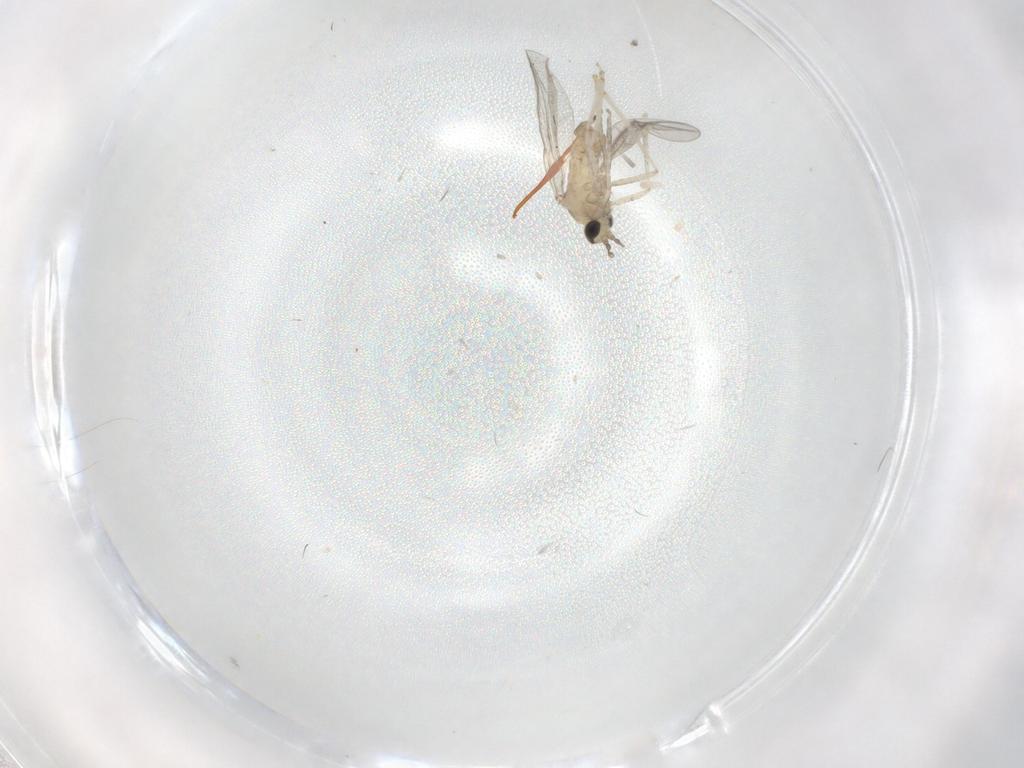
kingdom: Animalia
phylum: Arthropoda
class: Insecta
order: Diptera
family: Cecidomyiidae
